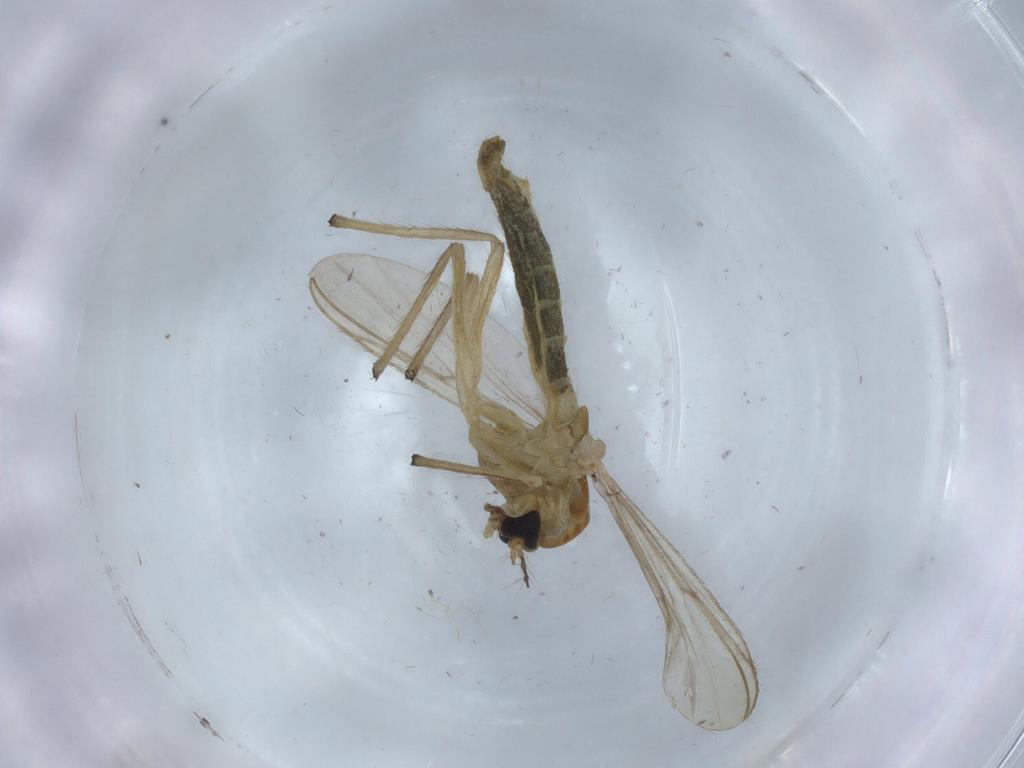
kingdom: Animalia
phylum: Arthropoda
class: Insecta
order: Diptera
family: Chironomidae
